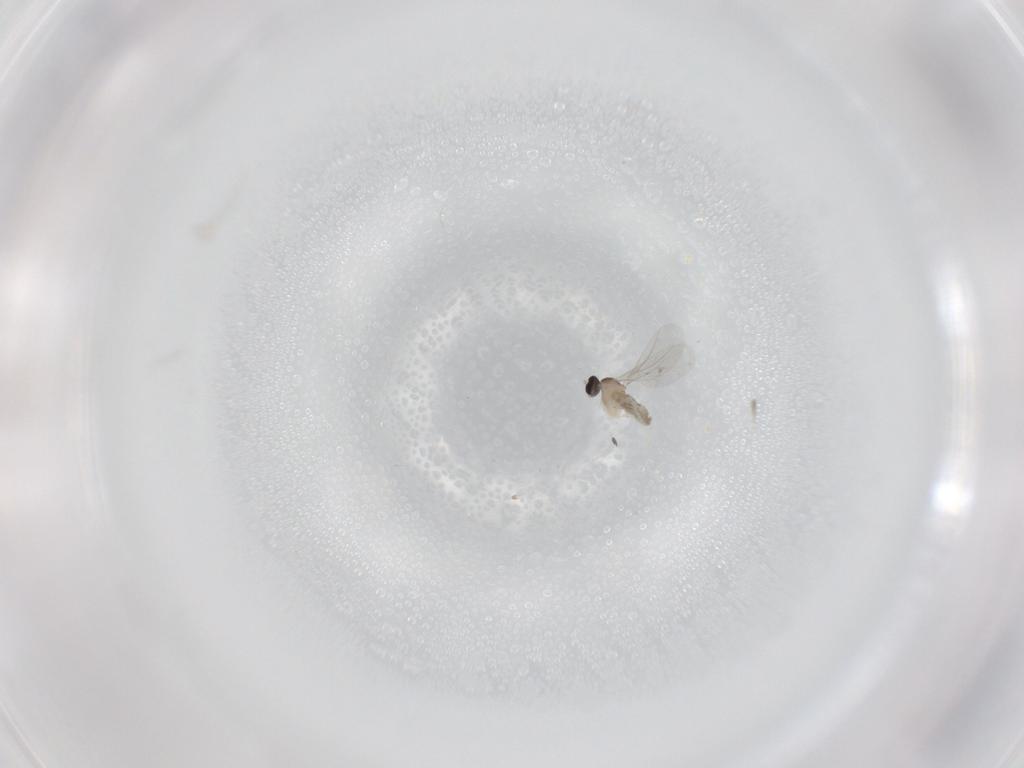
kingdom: Animalia
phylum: Arthropoda
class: Insecta
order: Diptera
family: Cecidomyiidae
